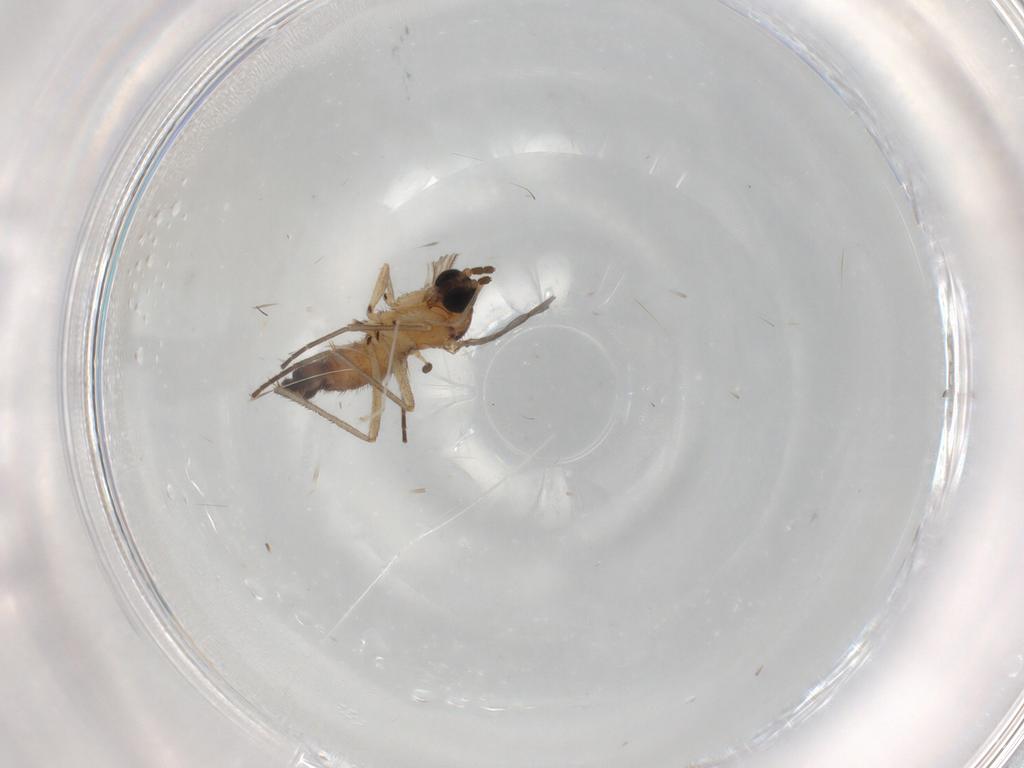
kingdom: Animalia
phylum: Arthropoda
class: Insecta
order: Diptera
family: Sciaridae
